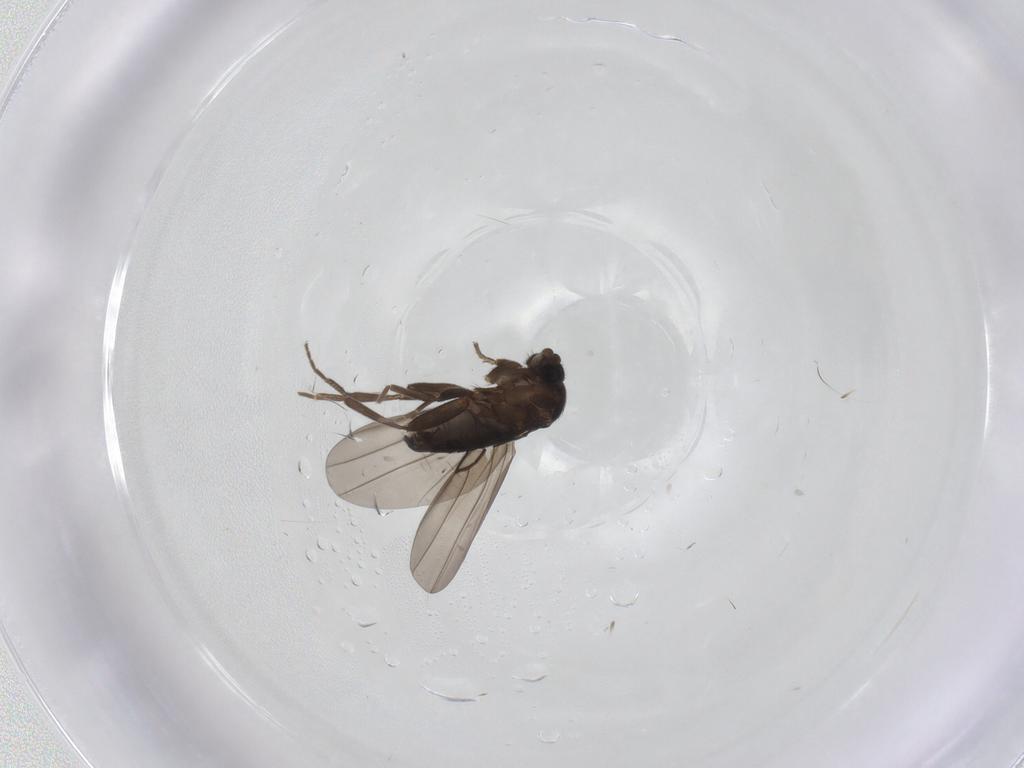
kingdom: Animalia
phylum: Arthropoda
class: Insecta
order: Diptera
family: Phoridae
